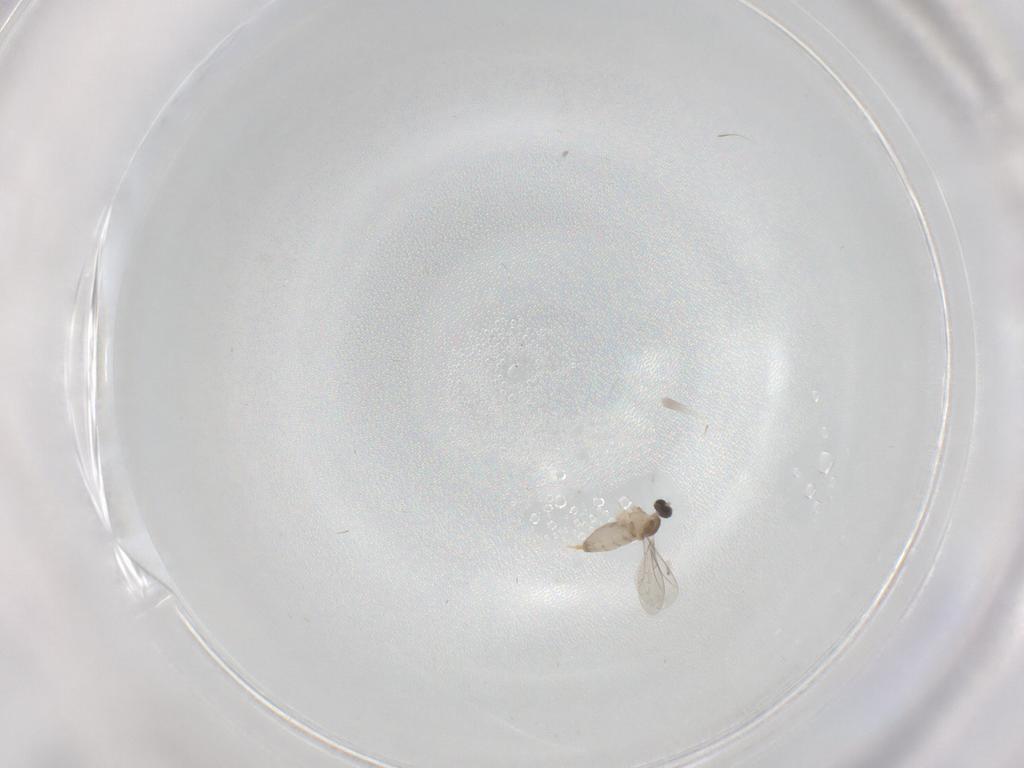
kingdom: Animalia
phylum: Arthropoda
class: Insecta
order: Diptera
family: Cecidomyiidae
